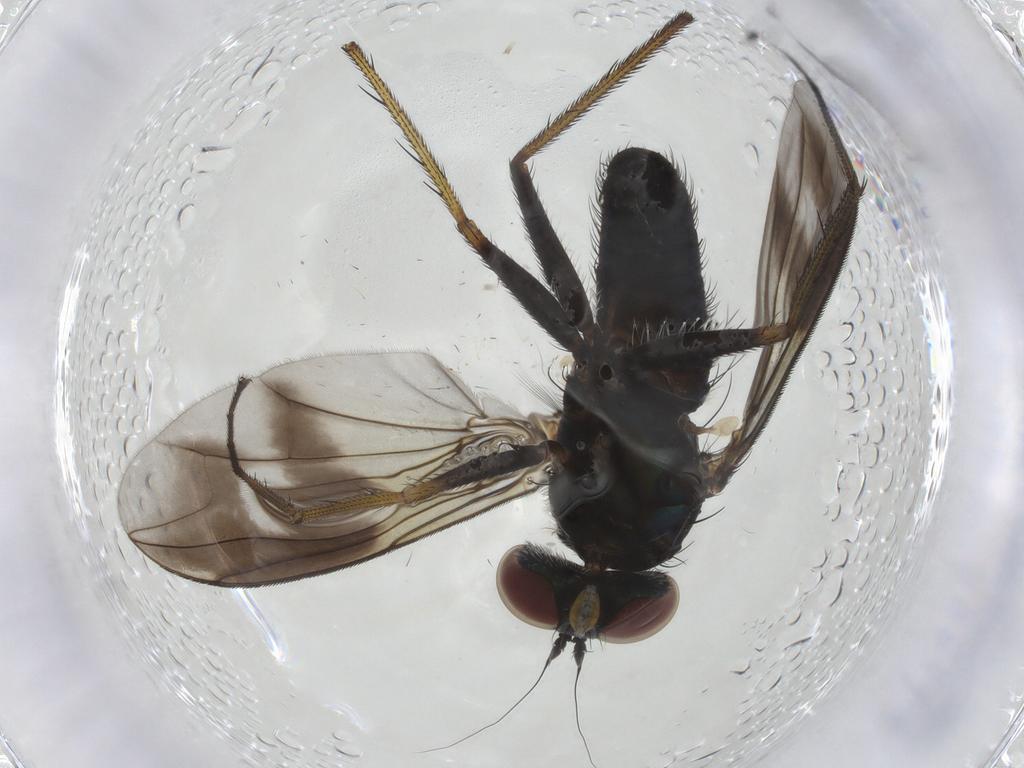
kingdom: Animalia
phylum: Arthropoda
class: Insecta
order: Diptera
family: Dolichopodidae
